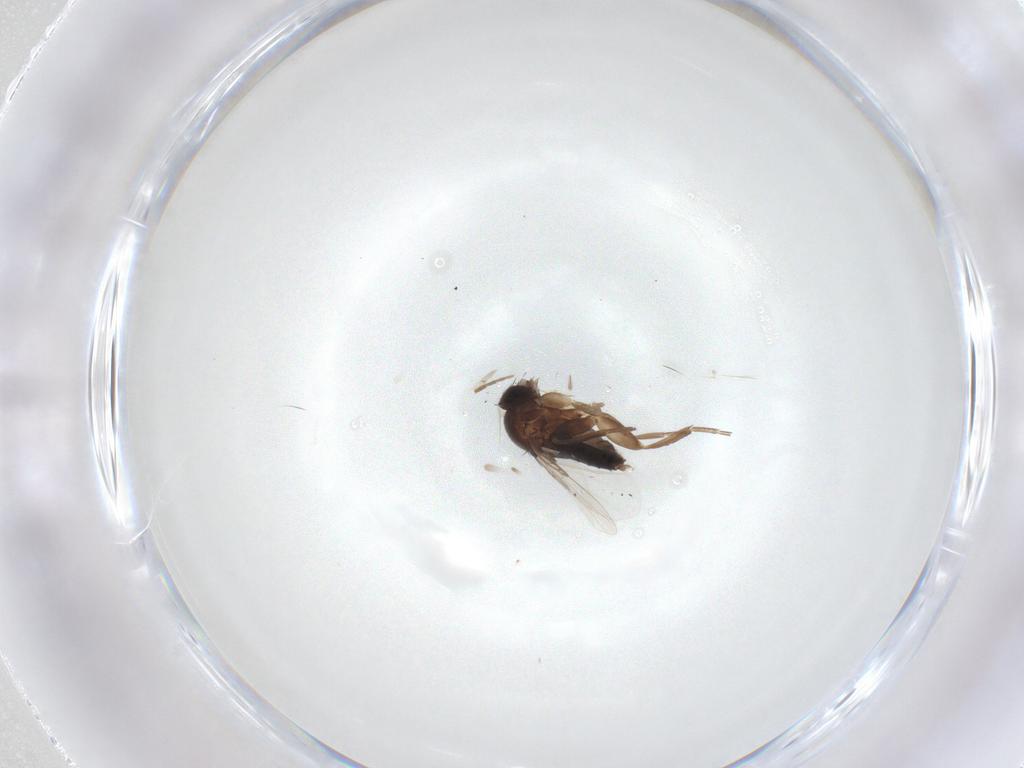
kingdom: Animalia
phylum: Arthropoda
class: Insecta
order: Diptera
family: Phoridae
